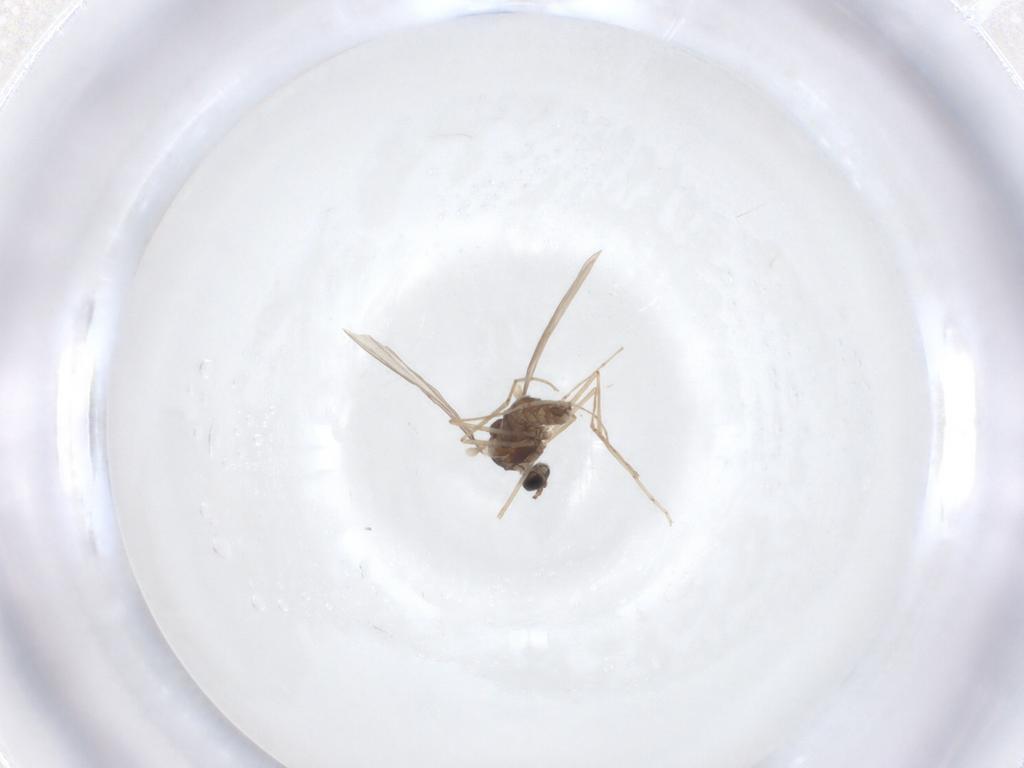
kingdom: Animalia
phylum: Arthropoda
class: Insecta
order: Diptera
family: Cecidomyiidae
